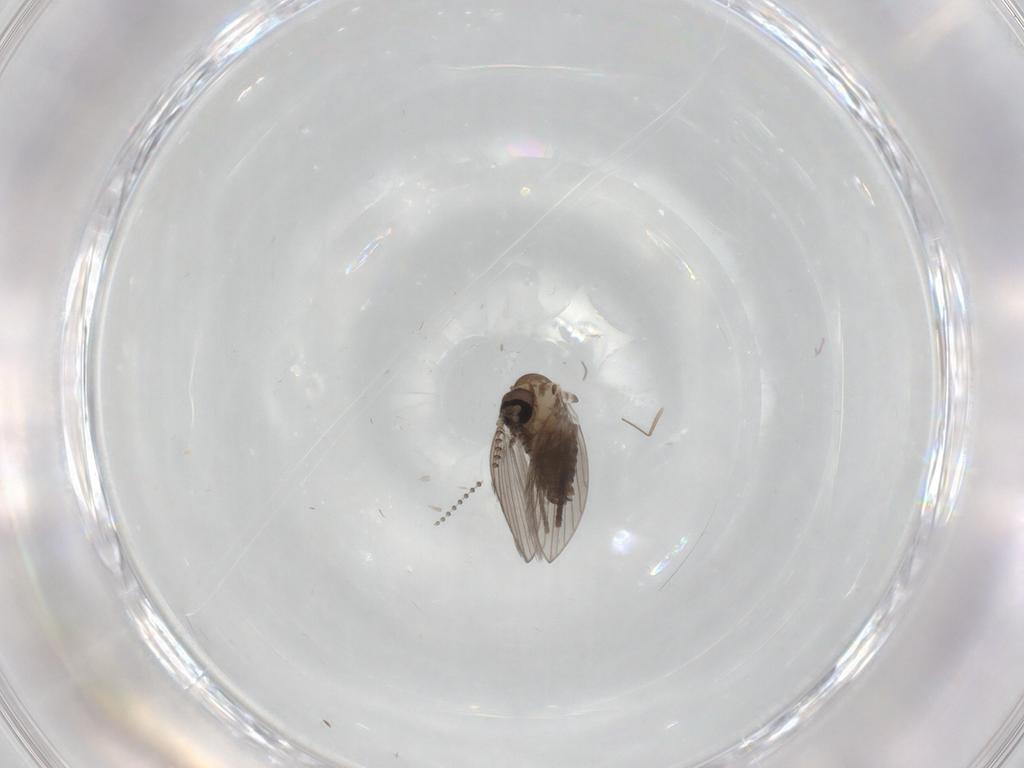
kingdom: Animalia
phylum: Arthropoda
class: Insecta
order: Diptera
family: Psychodidae
